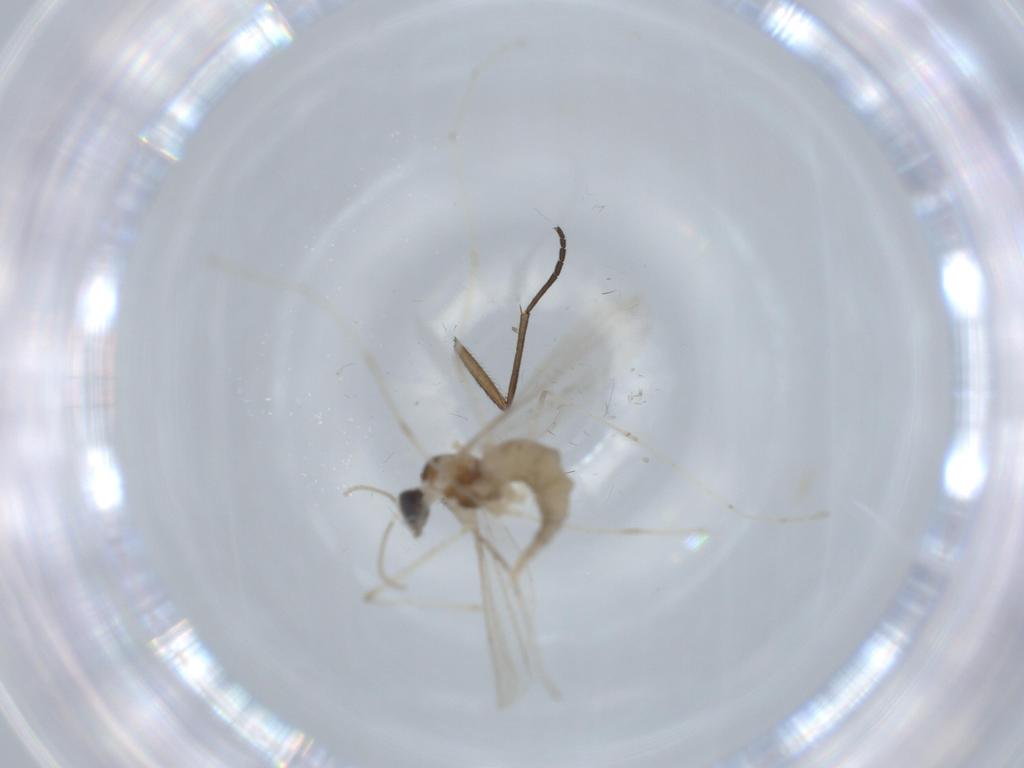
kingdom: Animalia
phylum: Arthropoda
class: Insecta
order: Diptera
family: Cecidomyiidae
